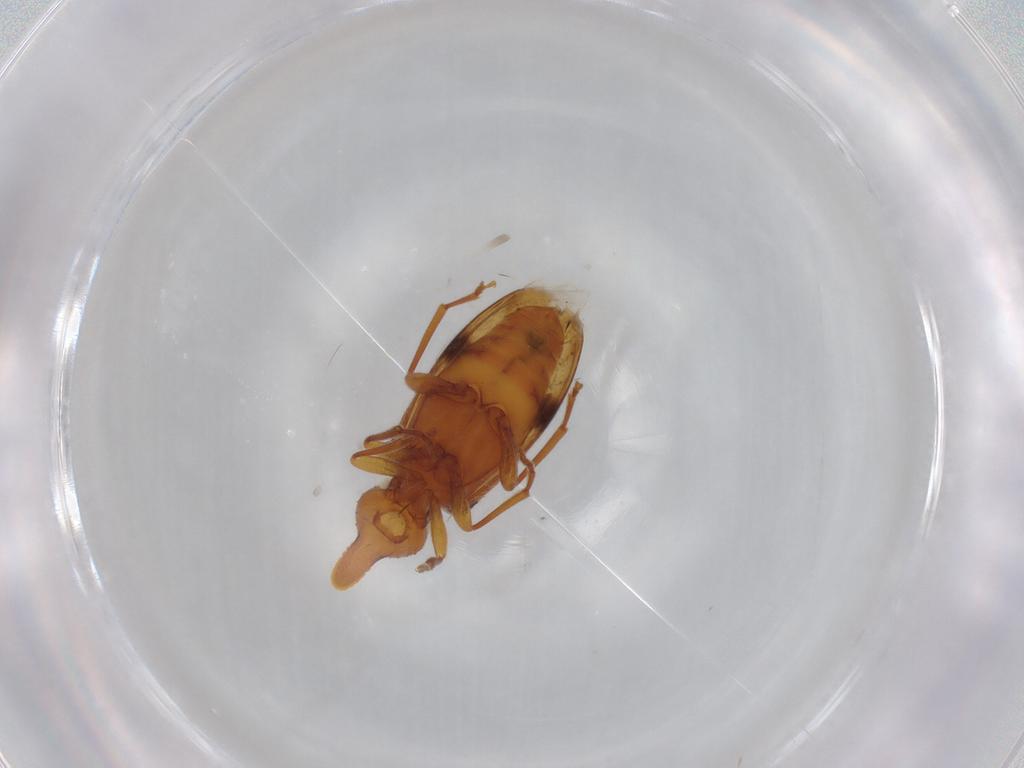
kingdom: Animalia
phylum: Arthropoda
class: Insecta
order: Coleoptera
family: Anthicidae
